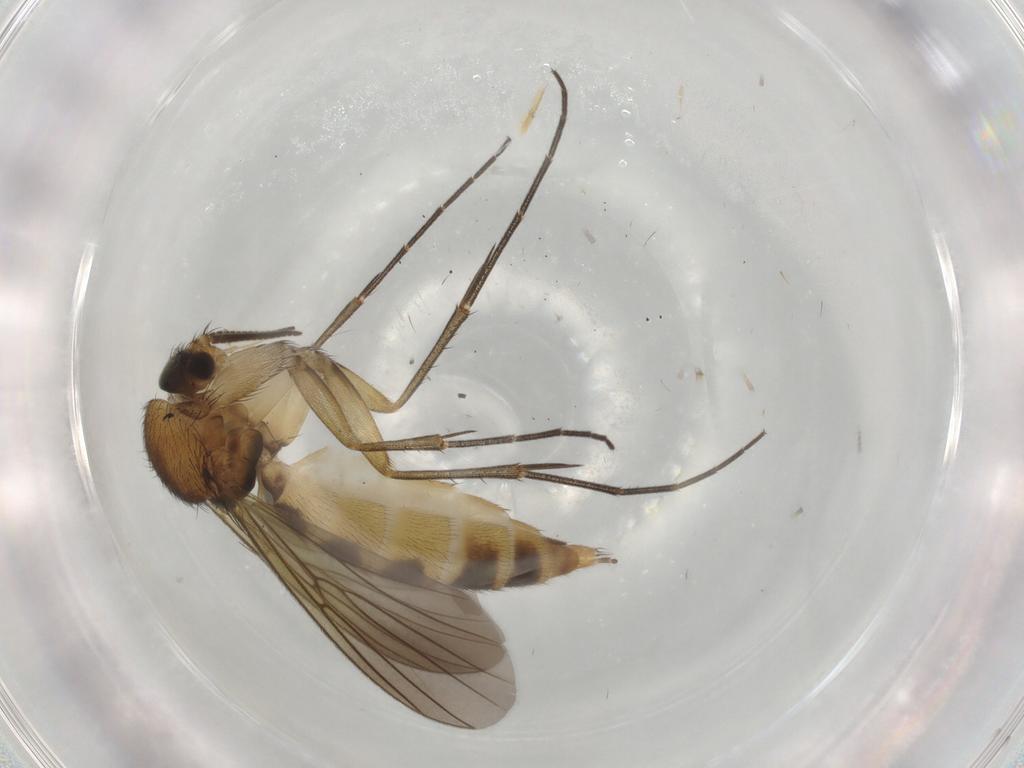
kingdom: Animalia
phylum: Arthropoda
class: Insecta
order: Diptera
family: Mycetophilidae
